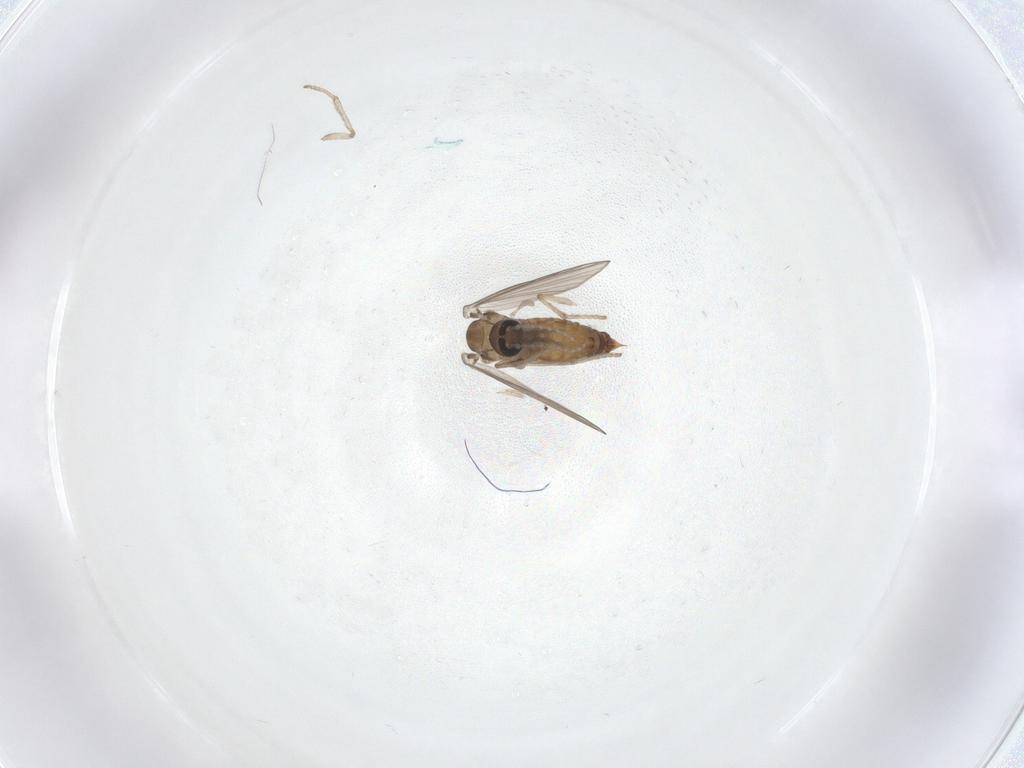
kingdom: Animalia
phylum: Arthropoda
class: Insecta
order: Diptera
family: Psychodidae
